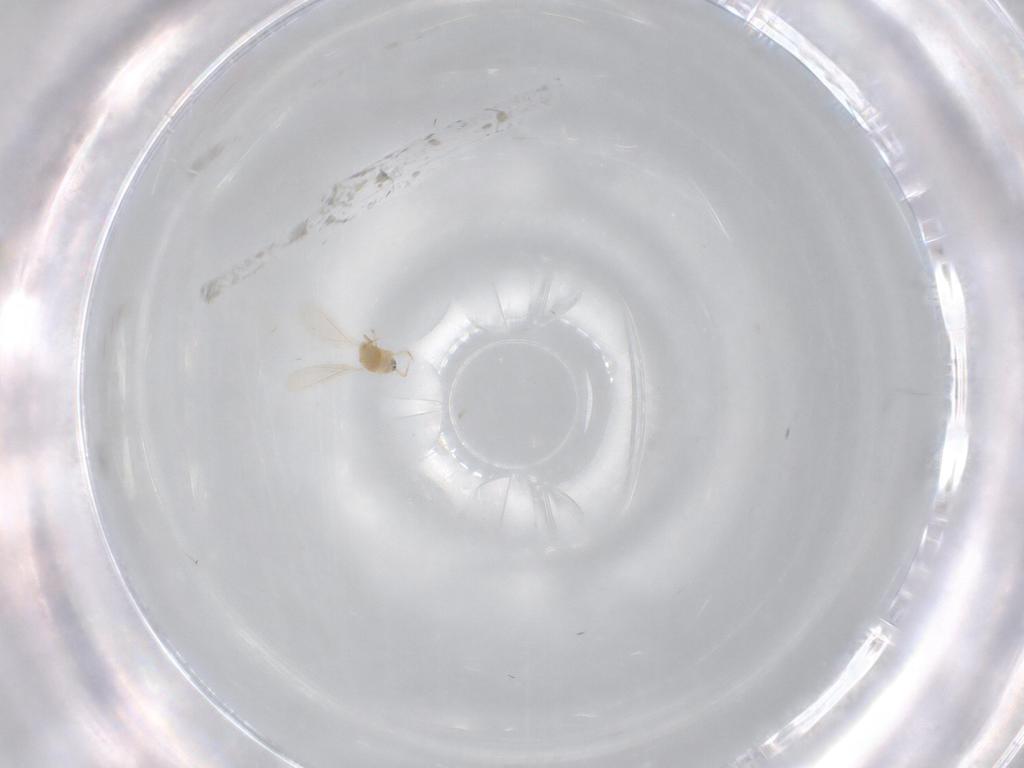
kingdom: Animalia
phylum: Arthropoda
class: Insecta
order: Hemiptera
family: Diaspididae
